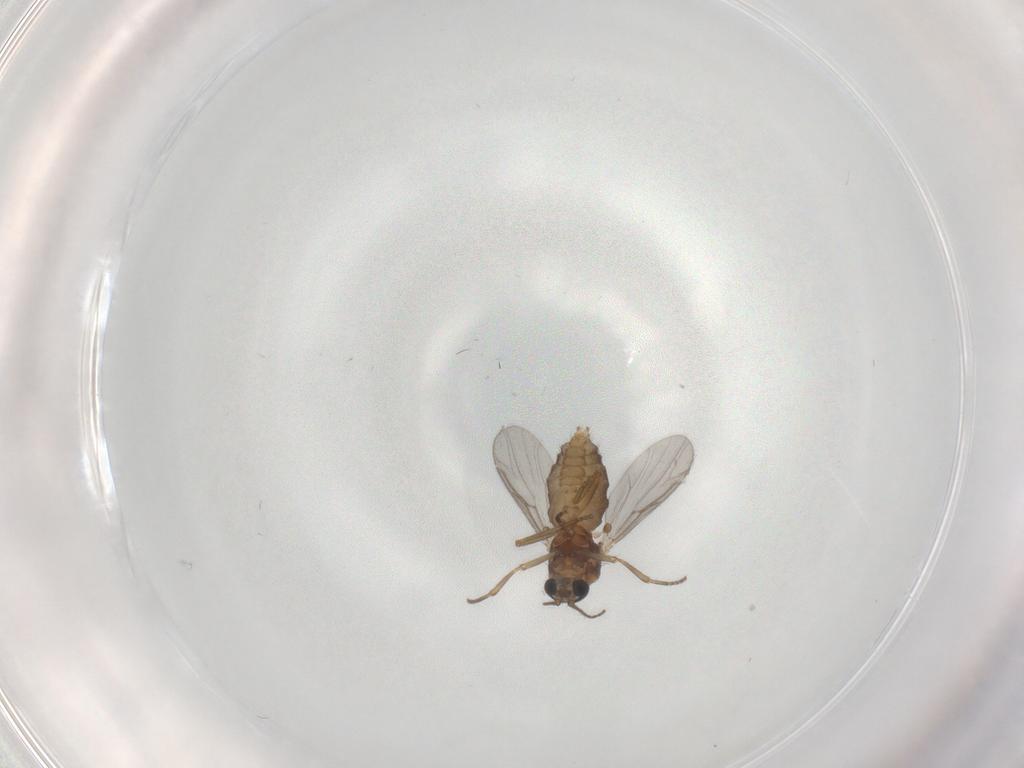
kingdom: Animalia
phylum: Arthropoda
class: Insecta
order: Diptera
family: Ceratopogonidae
